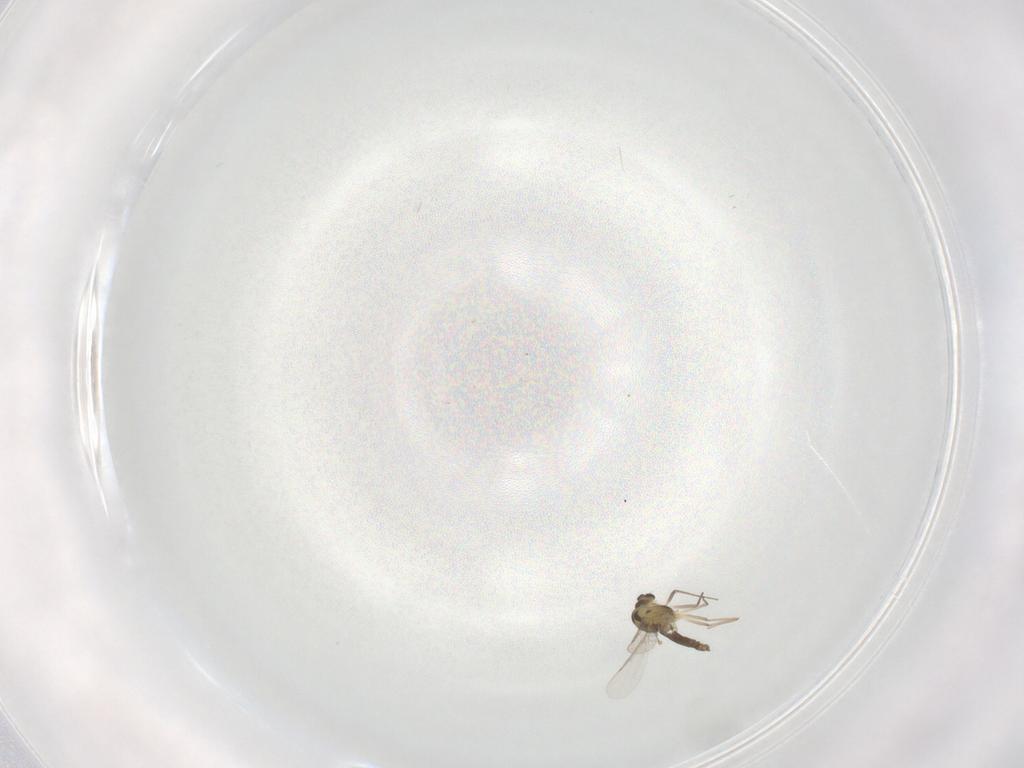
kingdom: Animalia
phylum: Arthropoda
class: Insecta
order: Diptera
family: Chironomidae
